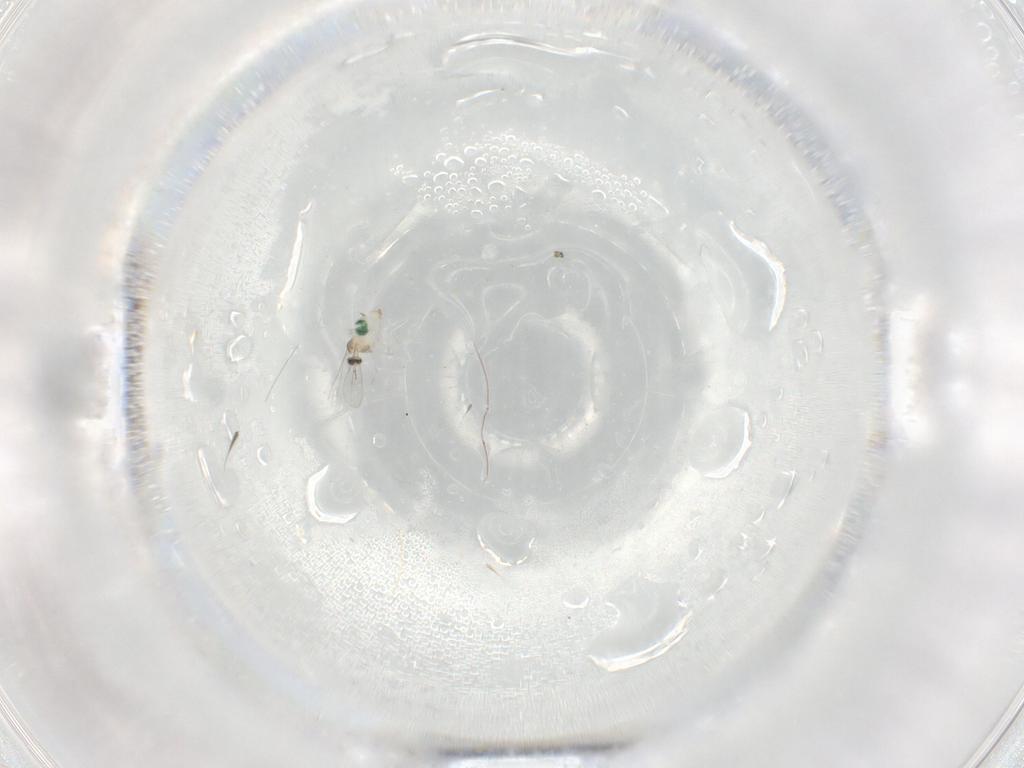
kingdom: Animalia
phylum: Arthropoda
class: Insecta
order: Diptera
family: Cecidomyiidae
